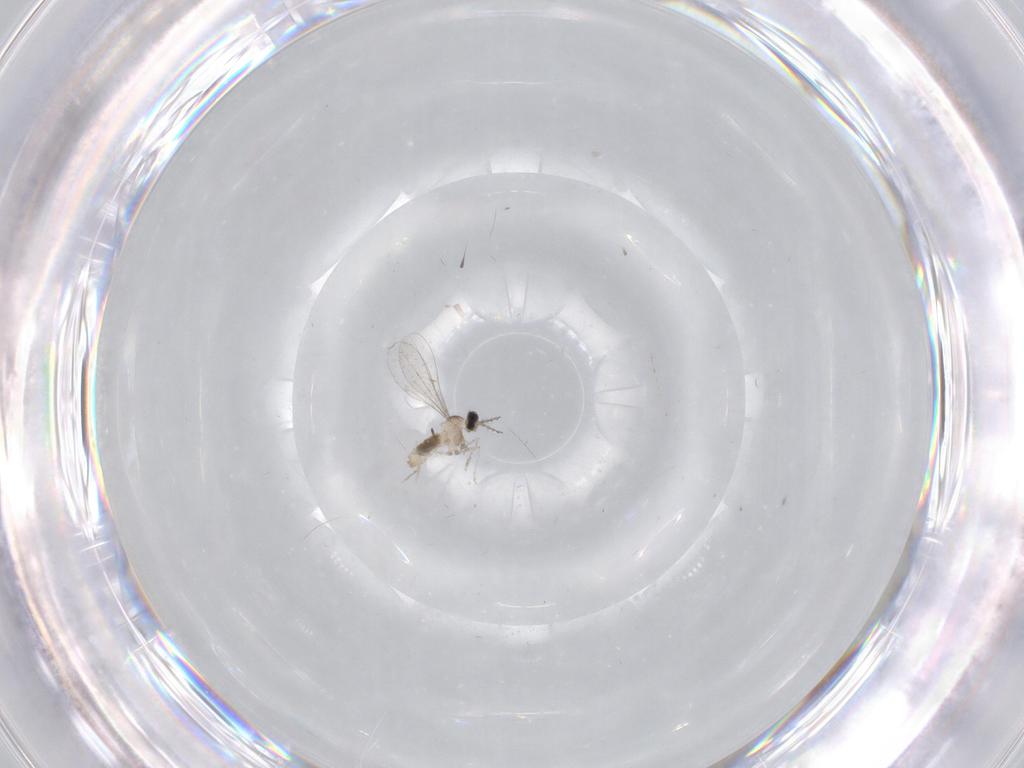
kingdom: Animalia
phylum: Arthropoda
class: Insecta
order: Diptera
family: Cecidomyiidae
